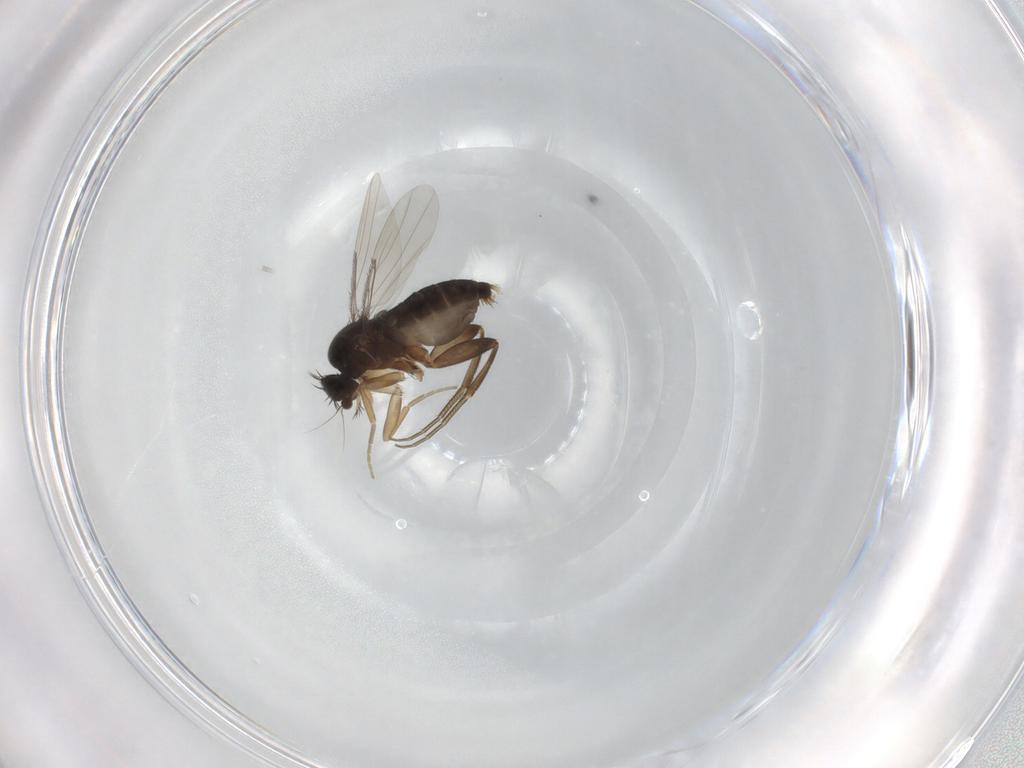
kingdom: Animalia
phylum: Arthropoda
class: Insecta
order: Diptera
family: Phoridae
